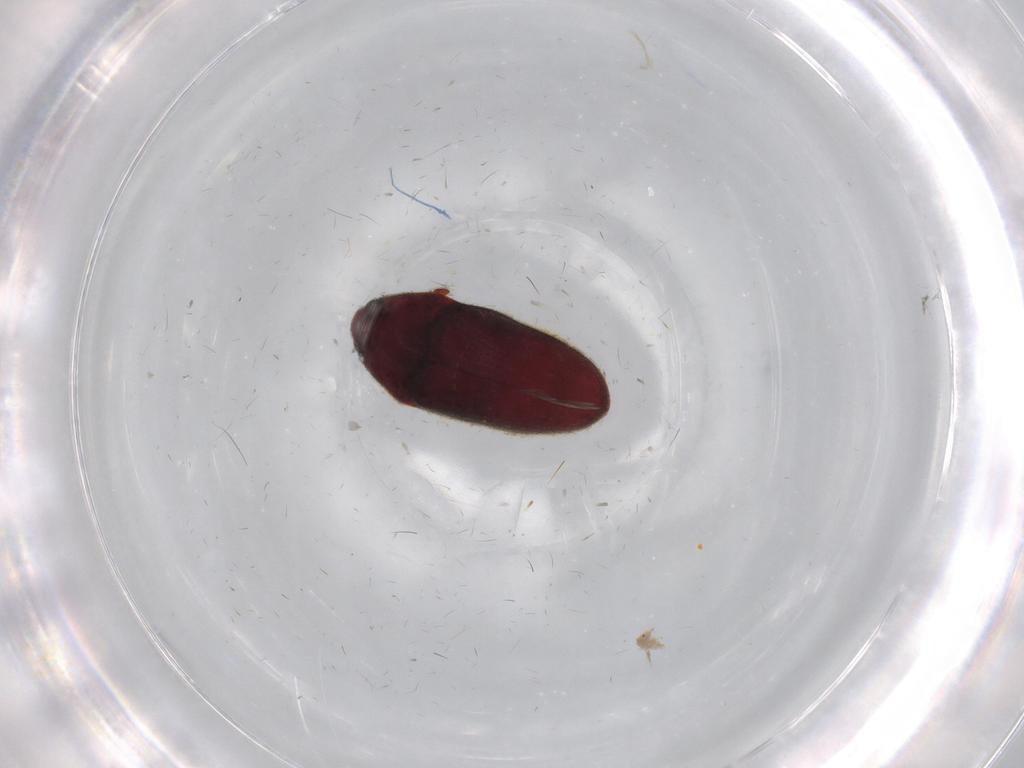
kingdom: Animalia
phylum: Arthropoda
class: Insecta
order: Coleoptera
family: Throscidae
